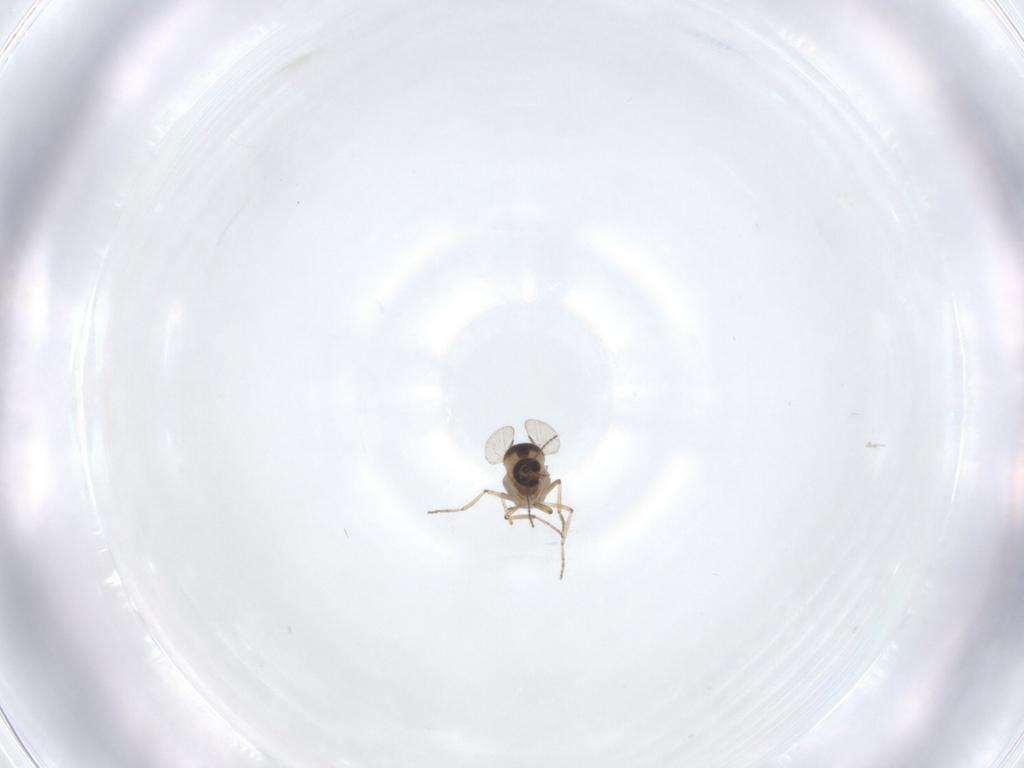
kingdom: Animalia
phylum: Arthropoda
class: Insecta
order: Diptera
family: Ceratopogonidae
